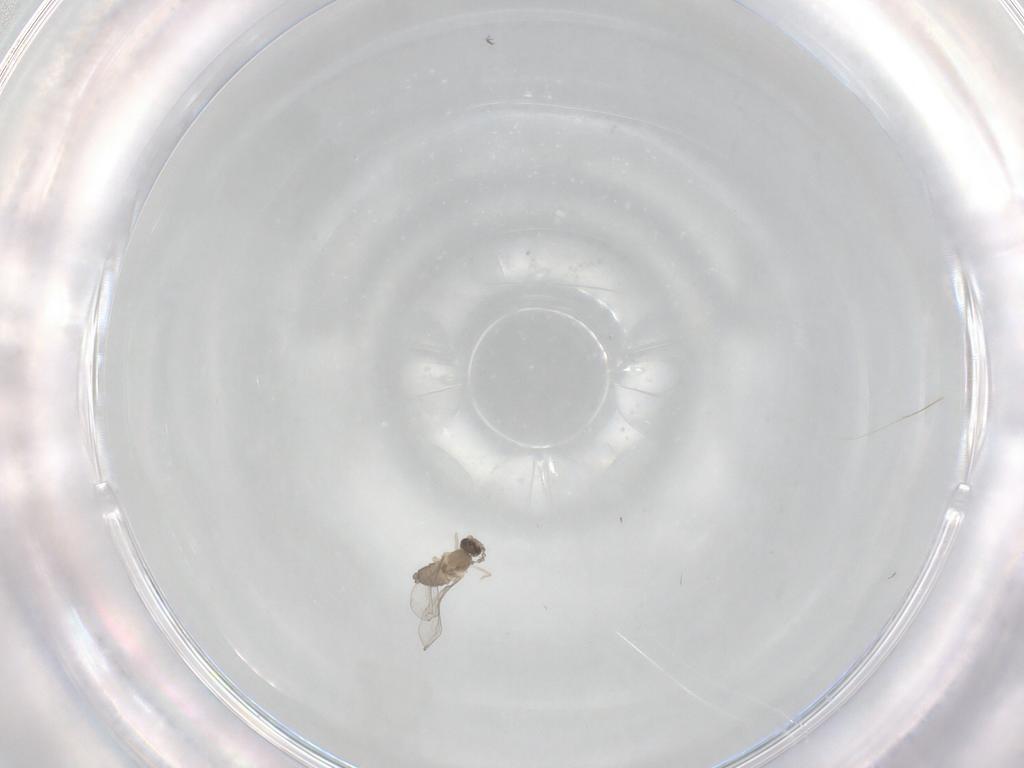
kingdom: Animalia
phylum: Arthropoda
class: Insecta
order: Diptera
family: Cecidomyiidae
